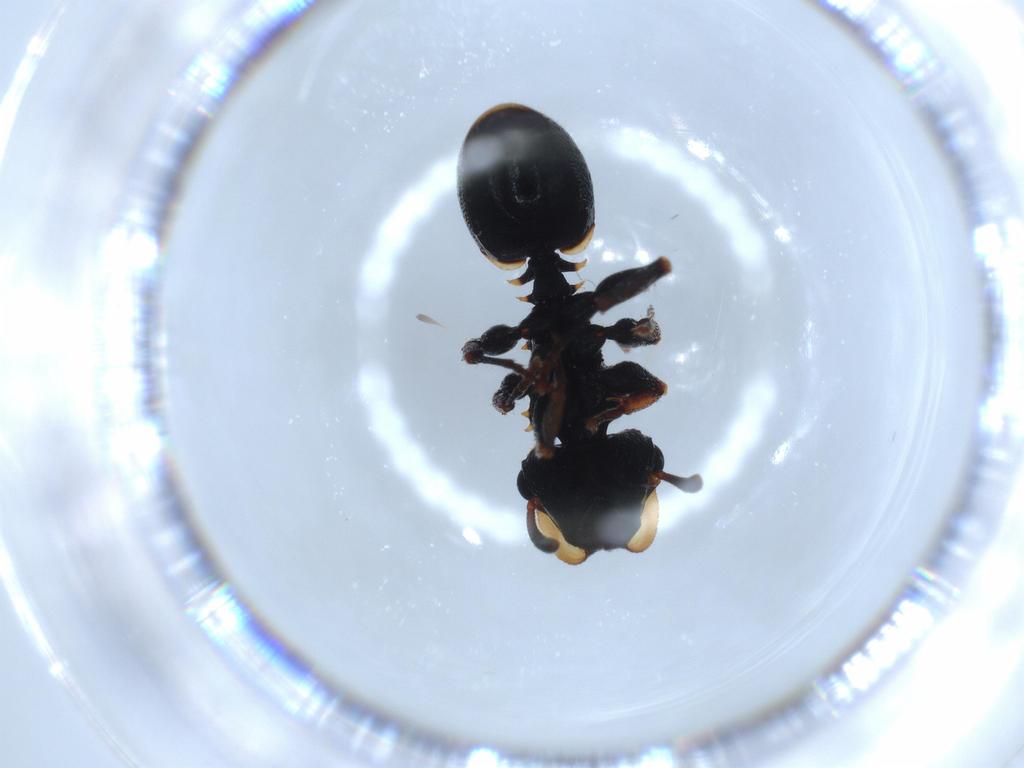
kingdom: Animalia
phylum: Arthropoda
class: Insecta
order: Hymenoptera
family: Formicidae
